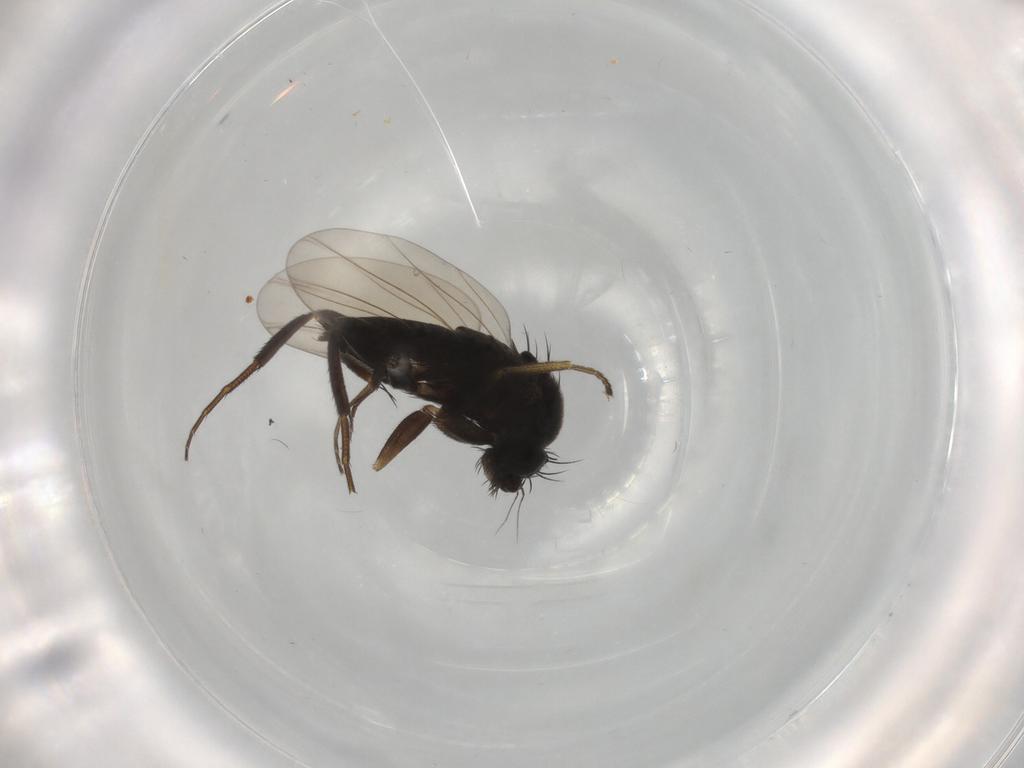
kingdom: Animalia
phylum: Arthropoda
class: Insecta
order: Diptera
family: Phoridae
